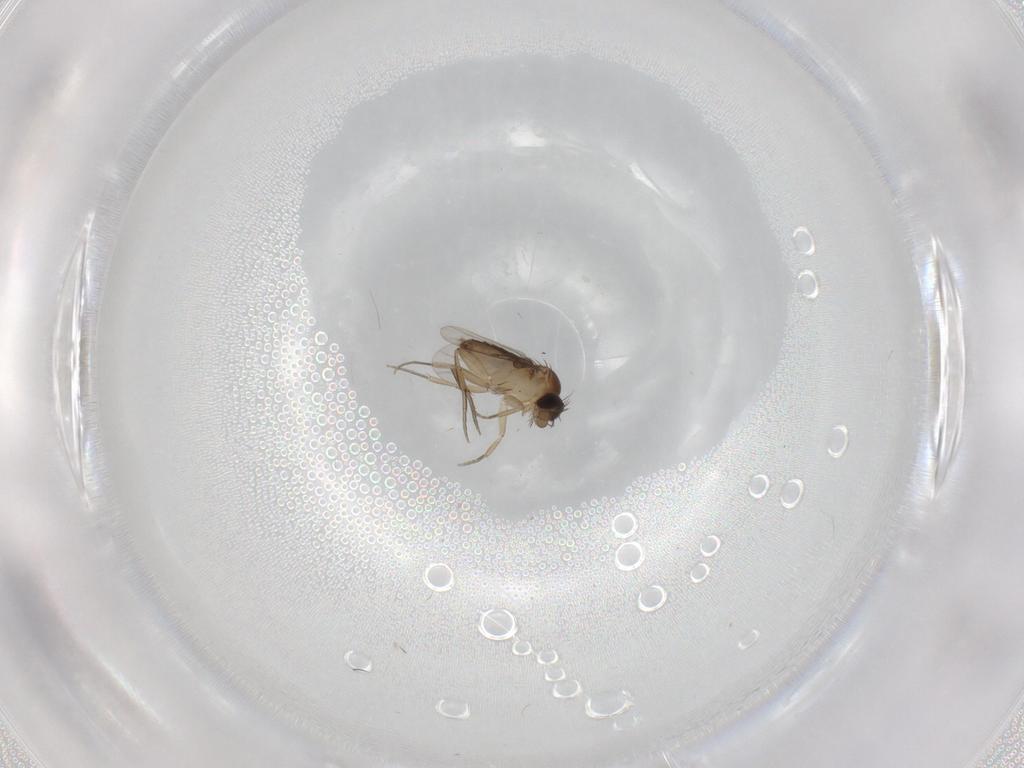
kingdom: Animalia
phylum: Arthropoda
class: Insecta
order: Diptera
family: Phoridae
